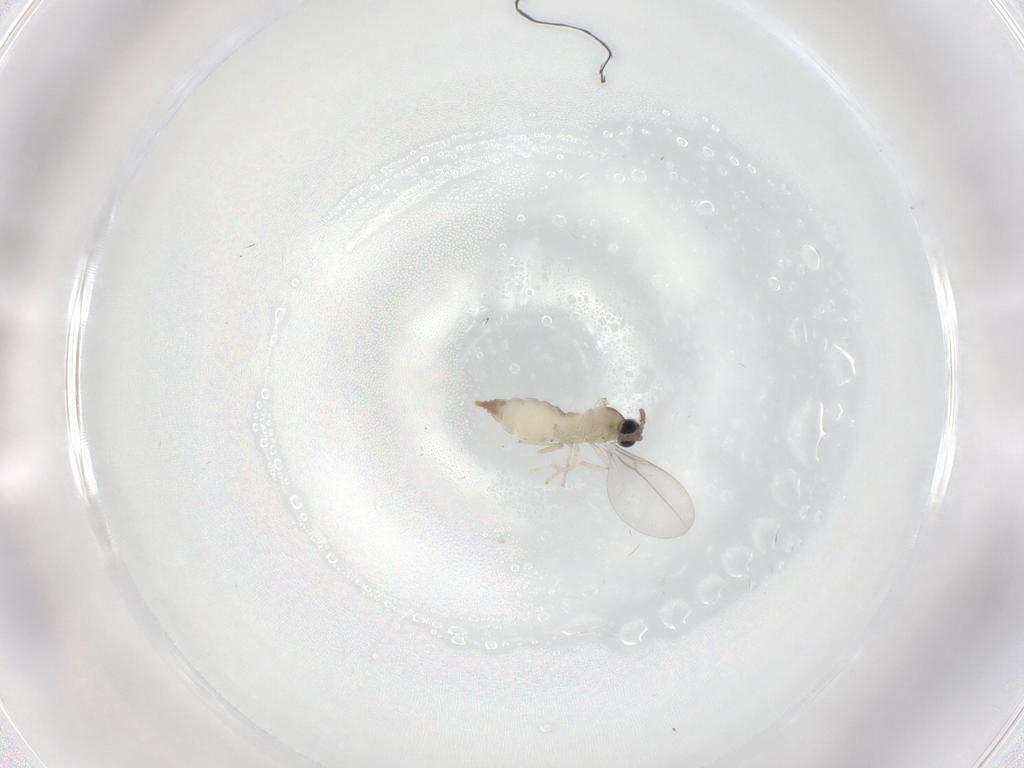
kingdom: Animalia
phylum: Arthropoda
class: Insecta
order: Diptera
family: Cecidomyiidae
